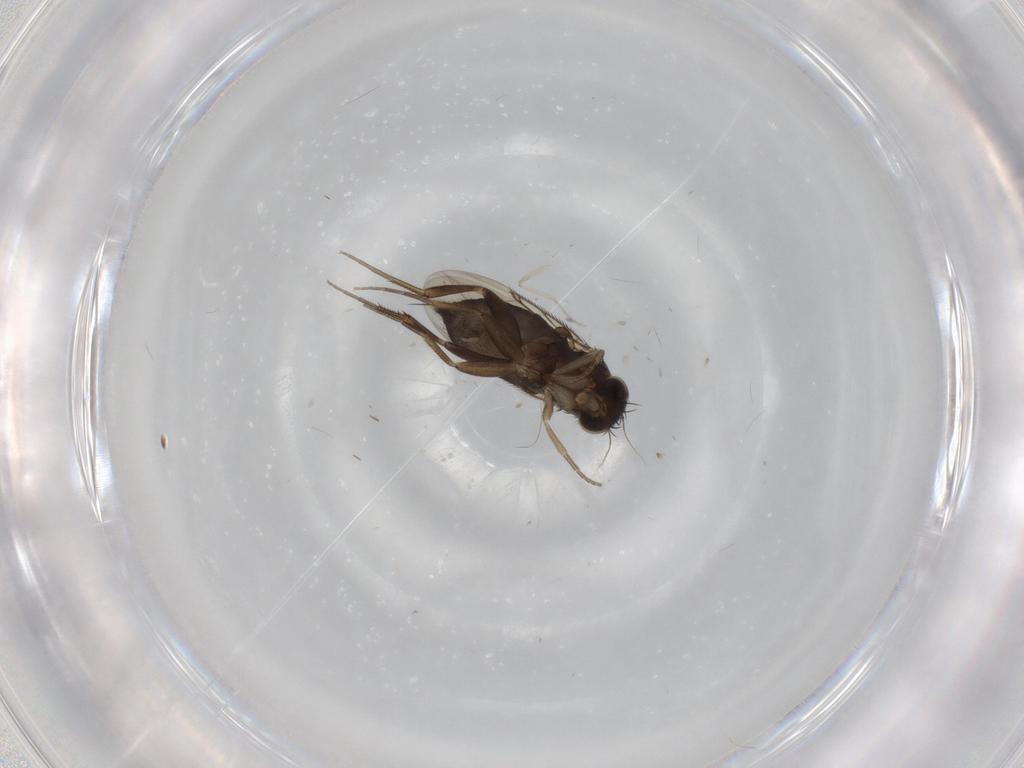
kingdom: Animalia
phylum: Arthropoda
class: Insecta
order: Diptera
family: Phoridae
